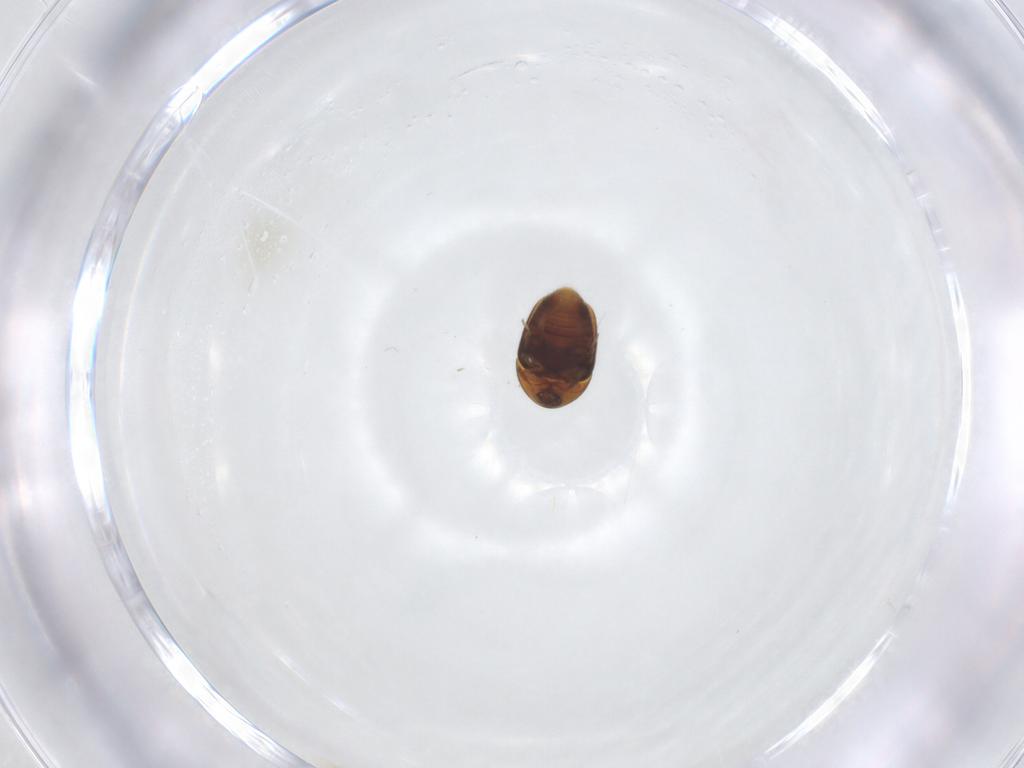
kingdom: Animalia
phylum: Arthropoda
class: Insecta
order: Coleoptera
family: Corylophidae
